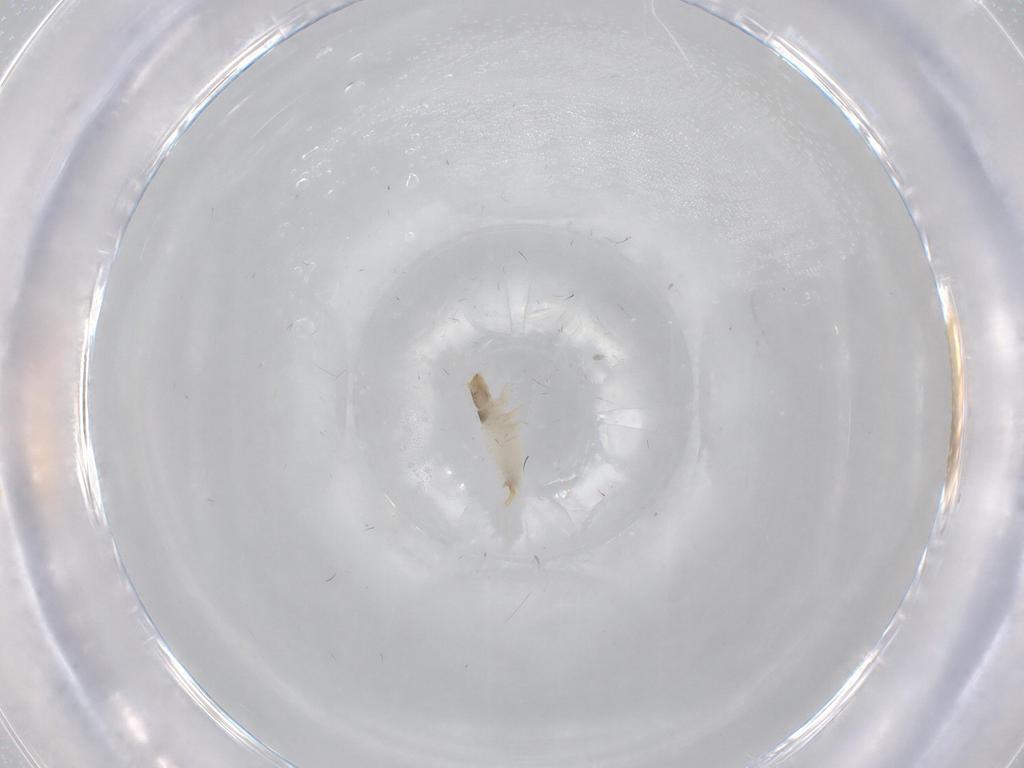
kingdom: Animalia
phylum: Arthropoda
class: Insecta
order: Coleoptera
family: Nitidulidae
